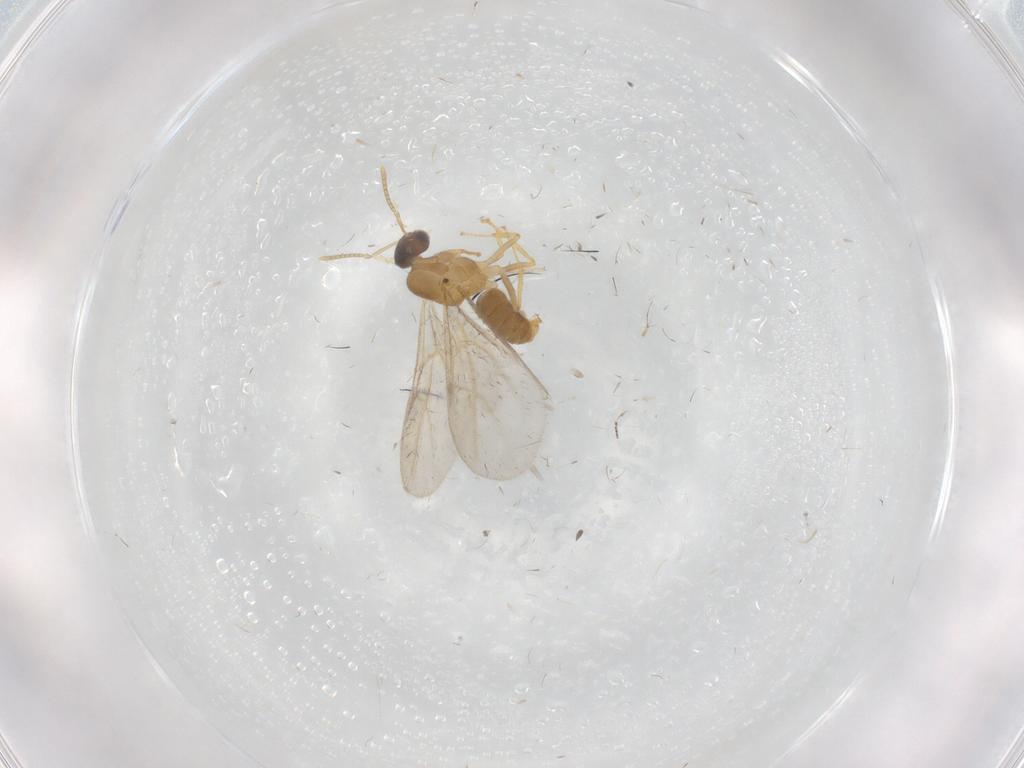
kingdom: Animalia
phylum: Arthropoda
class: Insecta
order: Hymenoptera
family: Formicidae
